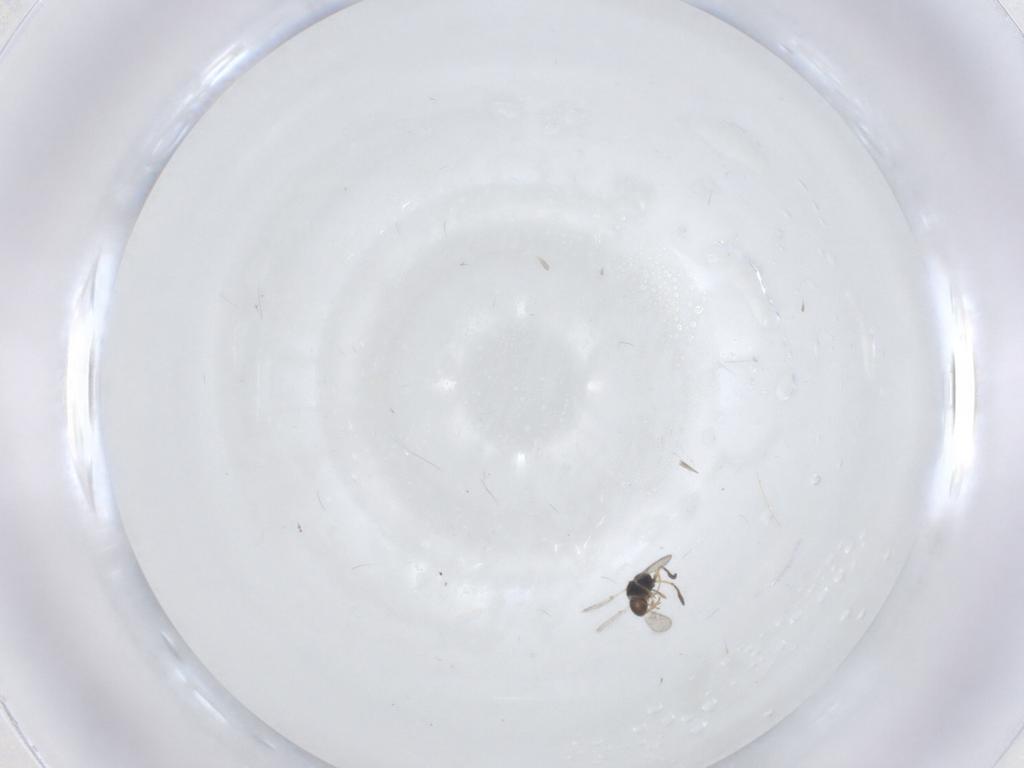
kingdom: Animalia
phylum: Arthropoda
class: Insecta
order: Hymenoptera
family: Scelionidae
